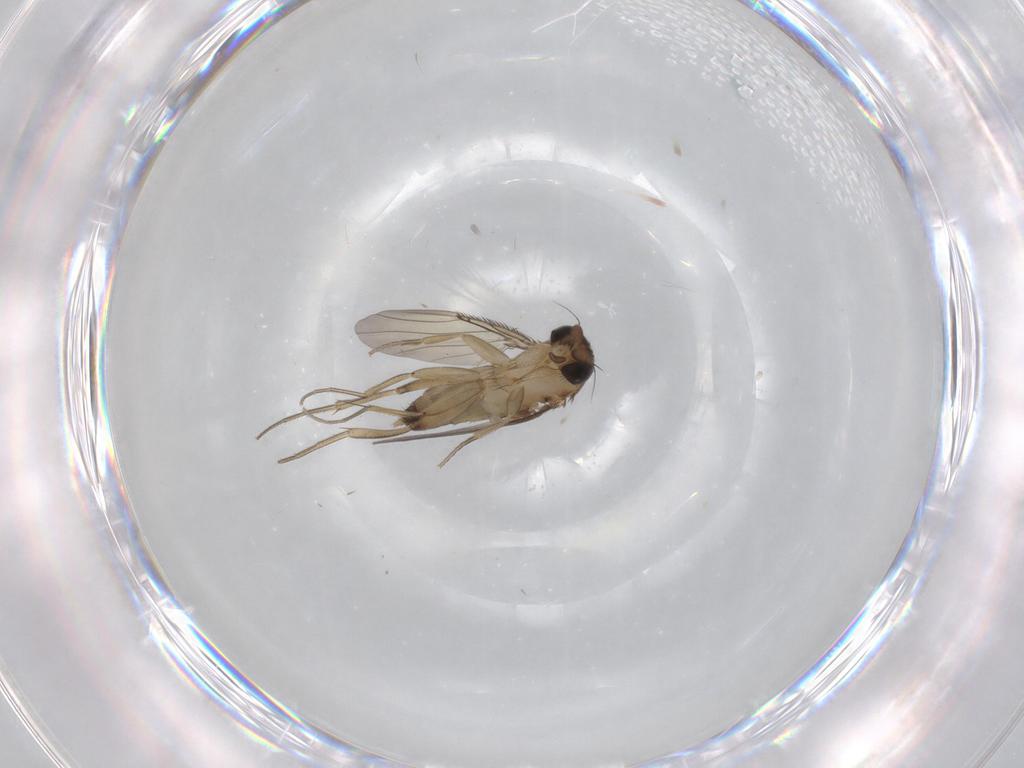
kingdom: Animalia
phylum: Arthropoda
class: Insecta
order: Diptera
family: Phoridae
